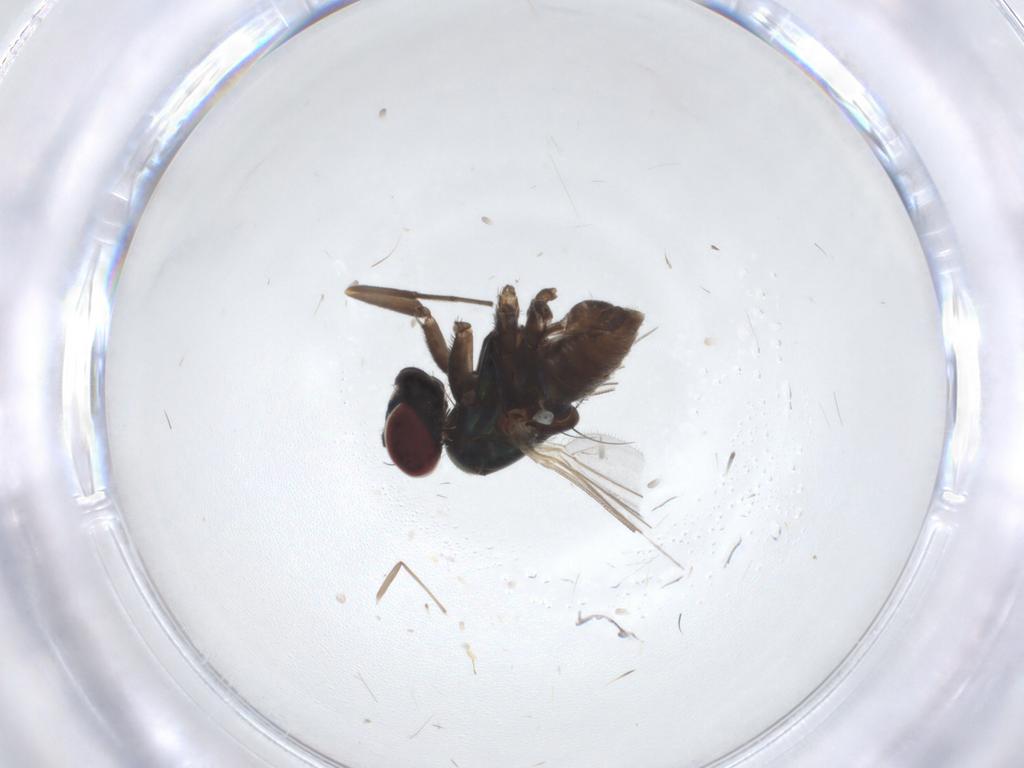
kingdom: Animalia
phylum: Arthropoda
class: Insecta
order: Diptera
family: Dolichopodidae
